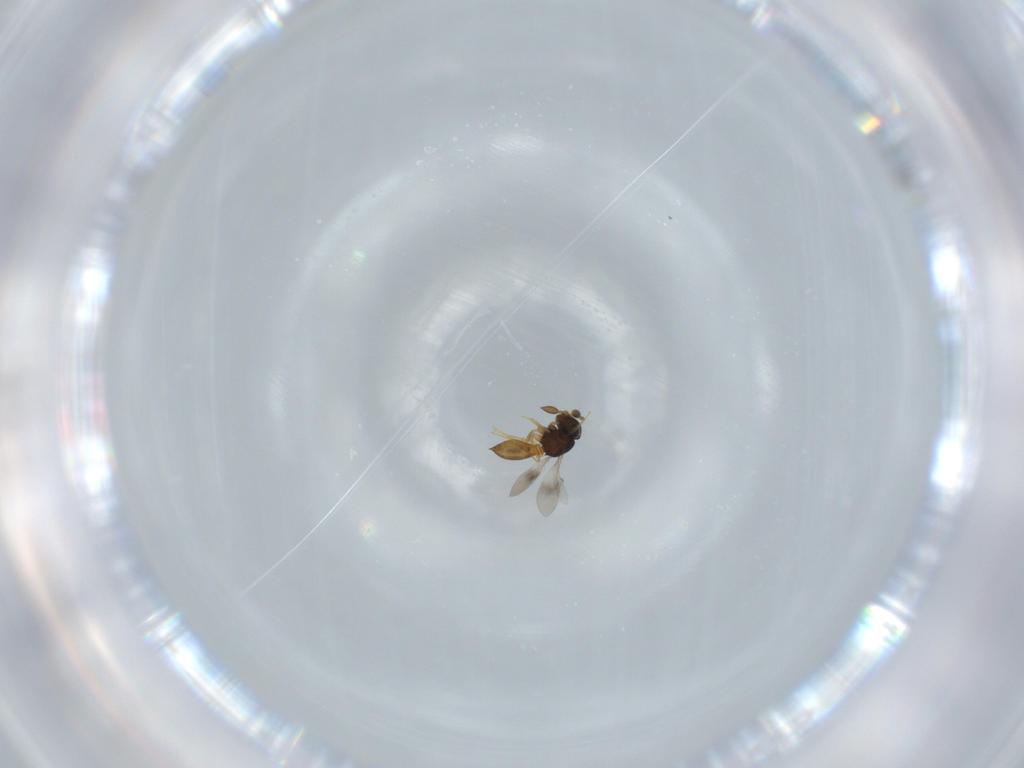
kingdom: Animalia
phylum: Arthropoda
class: Insecta
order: Hymenoptera
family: Scelionidae
